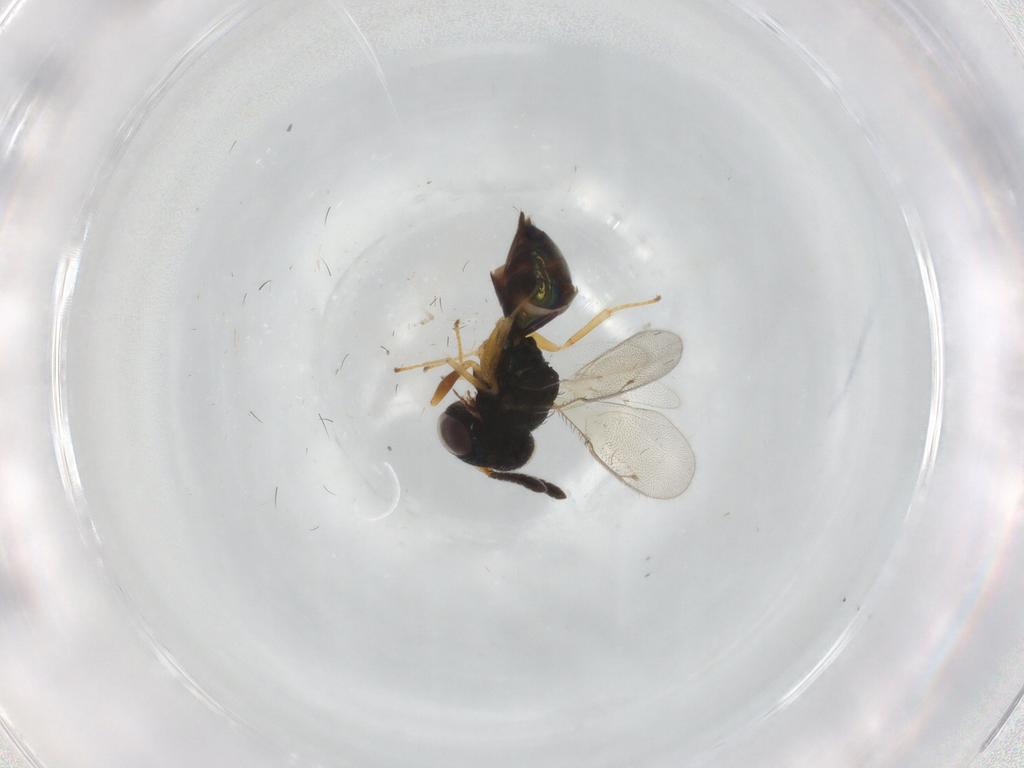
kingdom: Animalia
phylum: Arthropoda
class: Insecta
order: Hymenoptera
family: Pteromalidae
